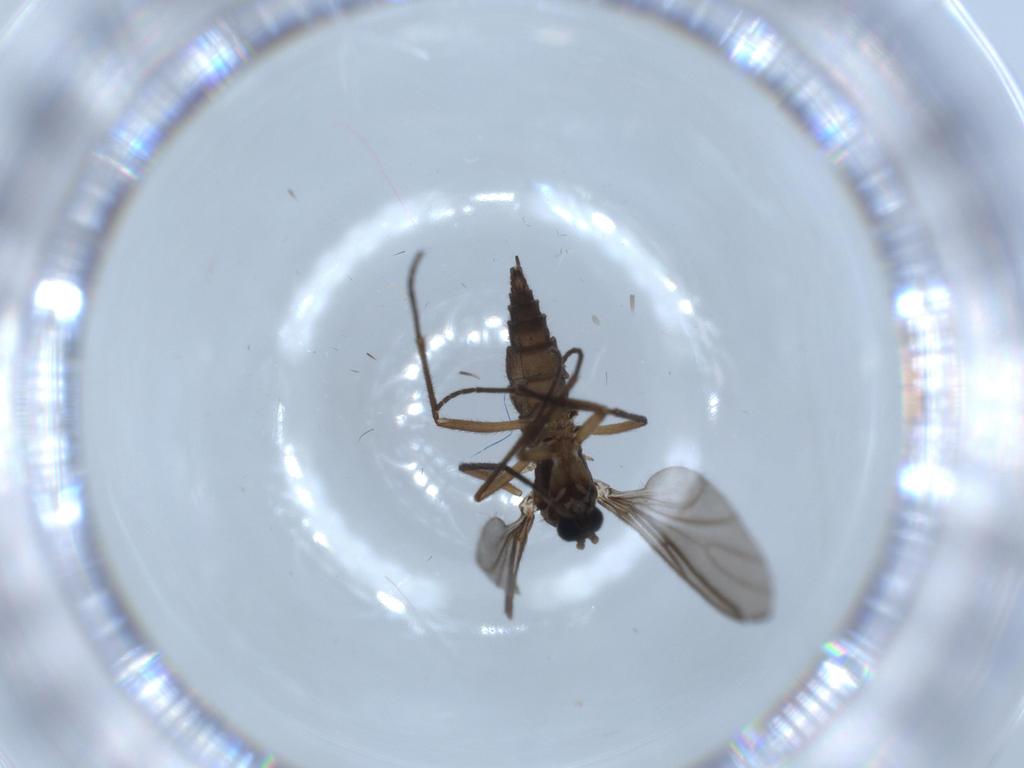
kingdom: Animalia
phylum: Arthropoda
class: Insecta
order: Diptera
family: Sciaridae
